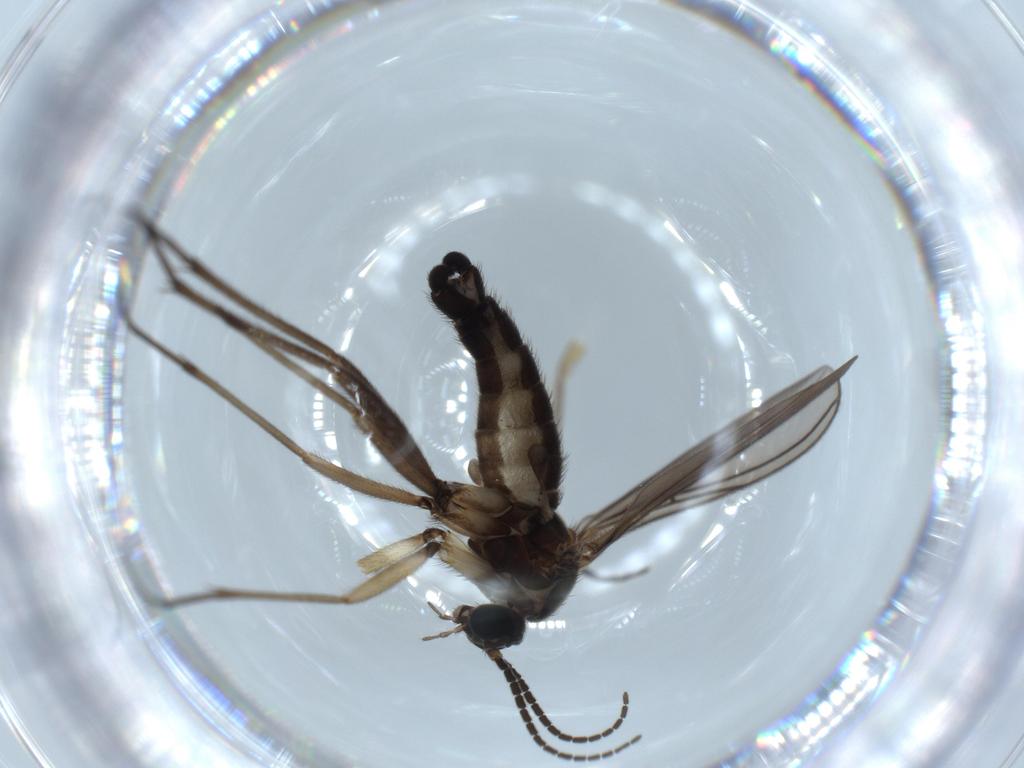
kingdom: Animalia
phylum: Arthropoda
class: Insecta
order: Diptera
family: Sciaridae
